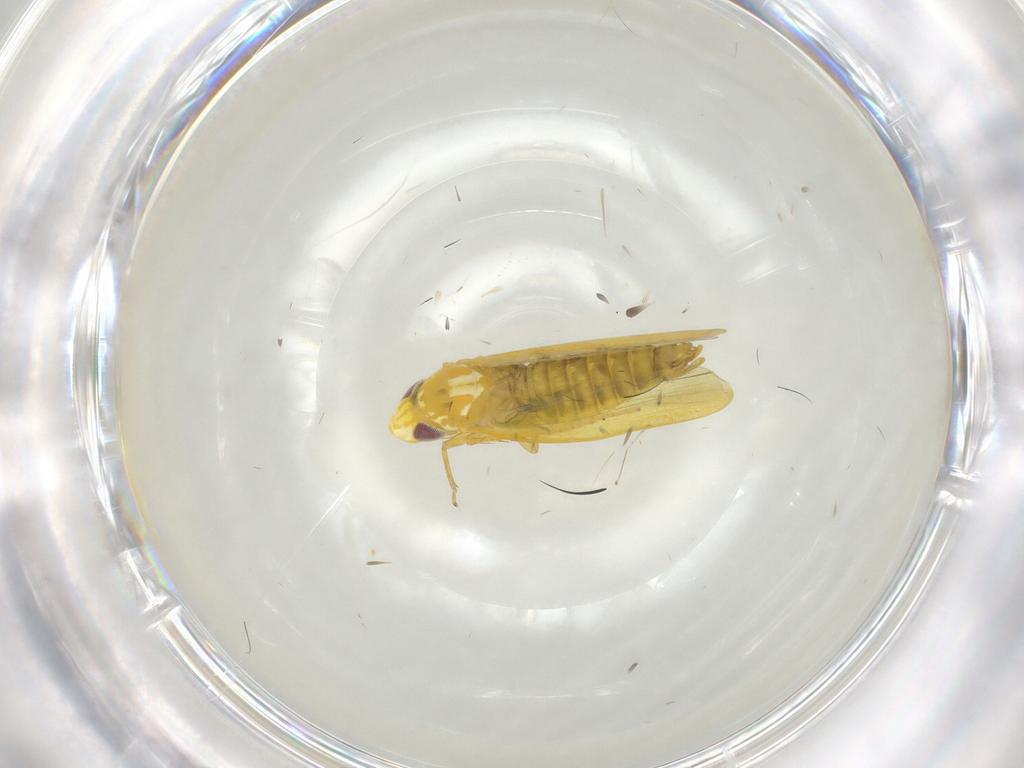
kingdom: Animalia
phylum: Arthropoda
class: Insecta
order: Hemiptera
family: Cicadellidae
